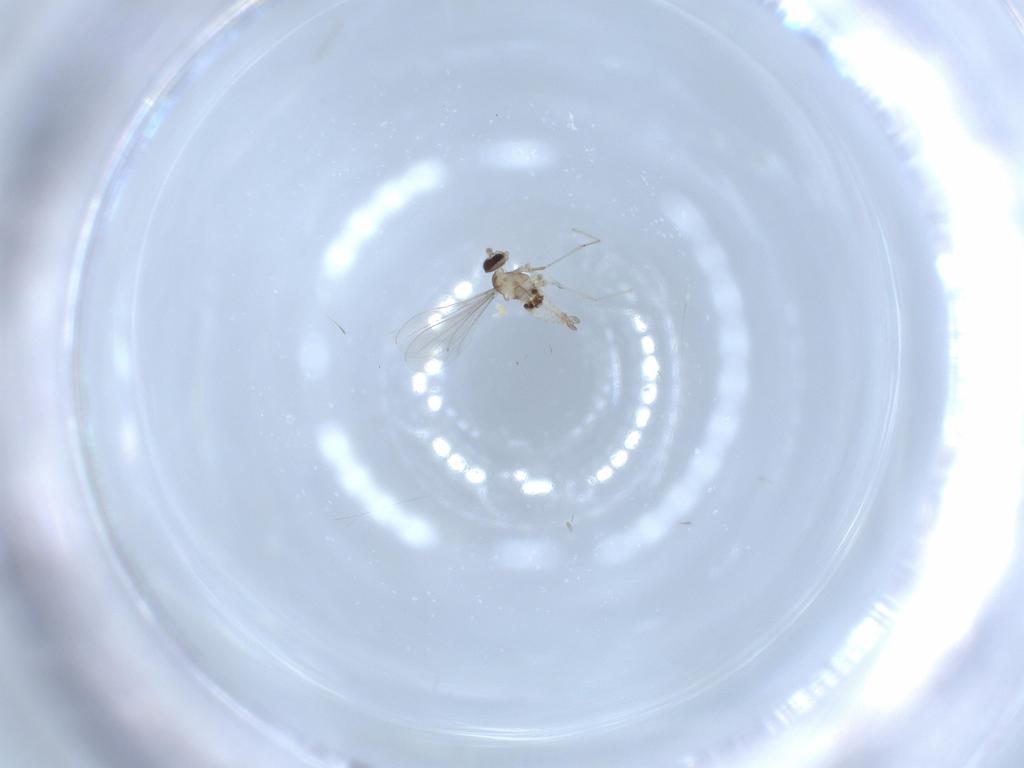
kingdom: Animalia
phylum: Arthropoda
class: Insecta
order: Diptera
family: Cecidomyiidae
